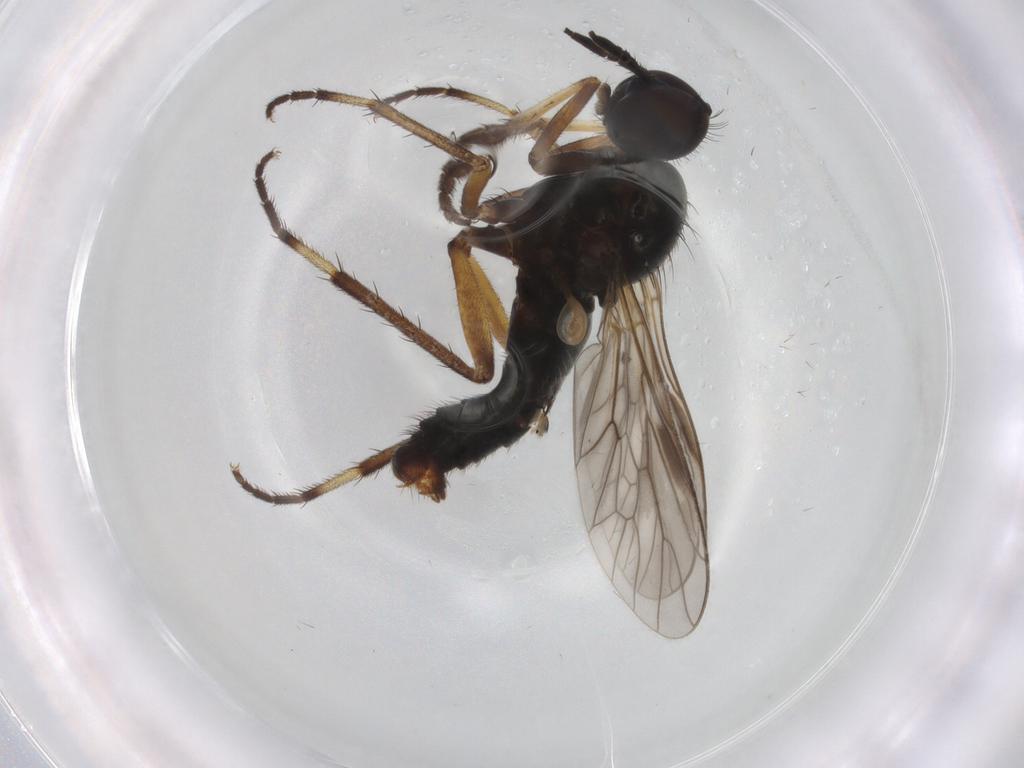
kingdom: Animalia
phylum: Arthropoda
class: Insecta
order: Diptera
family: Therevidae
